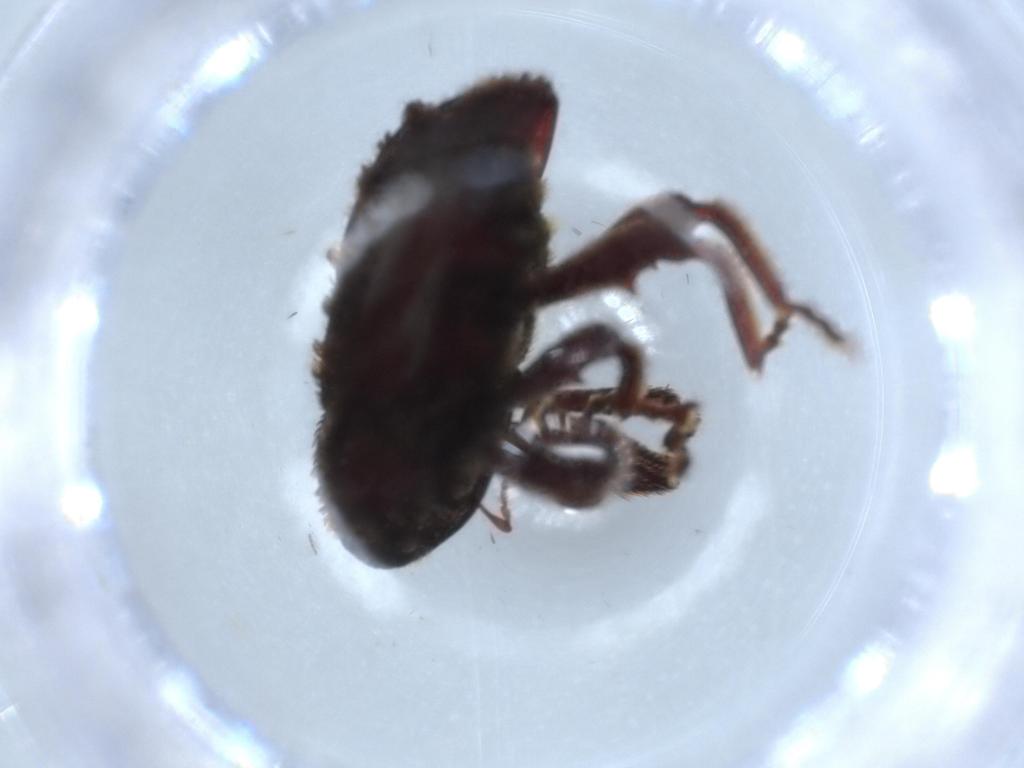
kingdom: Animalia
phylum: Arthropoda
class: Insecta
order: Coleoptera
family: Curculionidae
